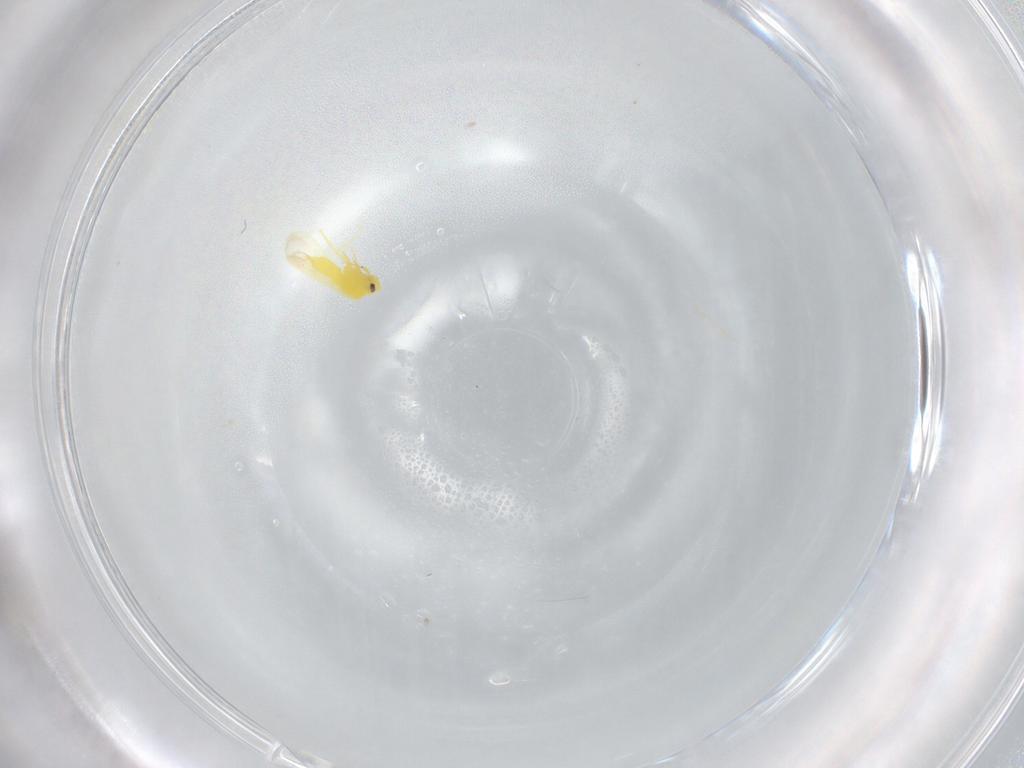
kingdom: Animalia
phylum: Arthropoda
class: Insecta
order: Hemiptera
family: Aleyrodidae
